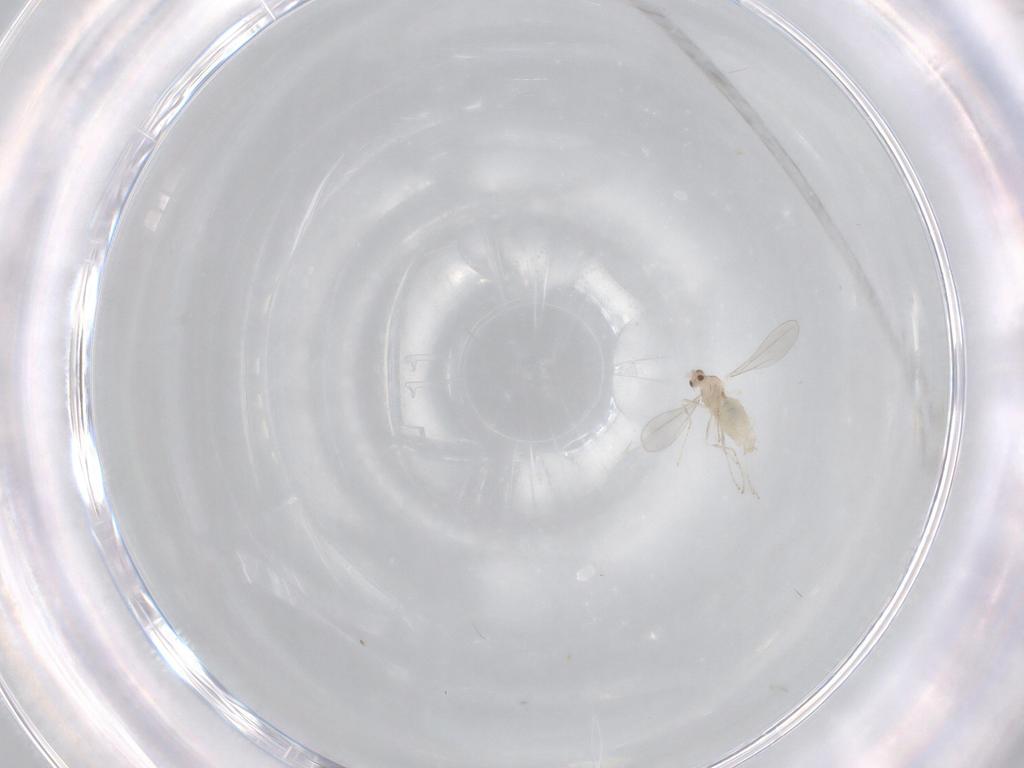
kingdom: Animalia
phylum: Arthropoda
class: Insecta
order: Diptera
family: Cecidomyiidae
